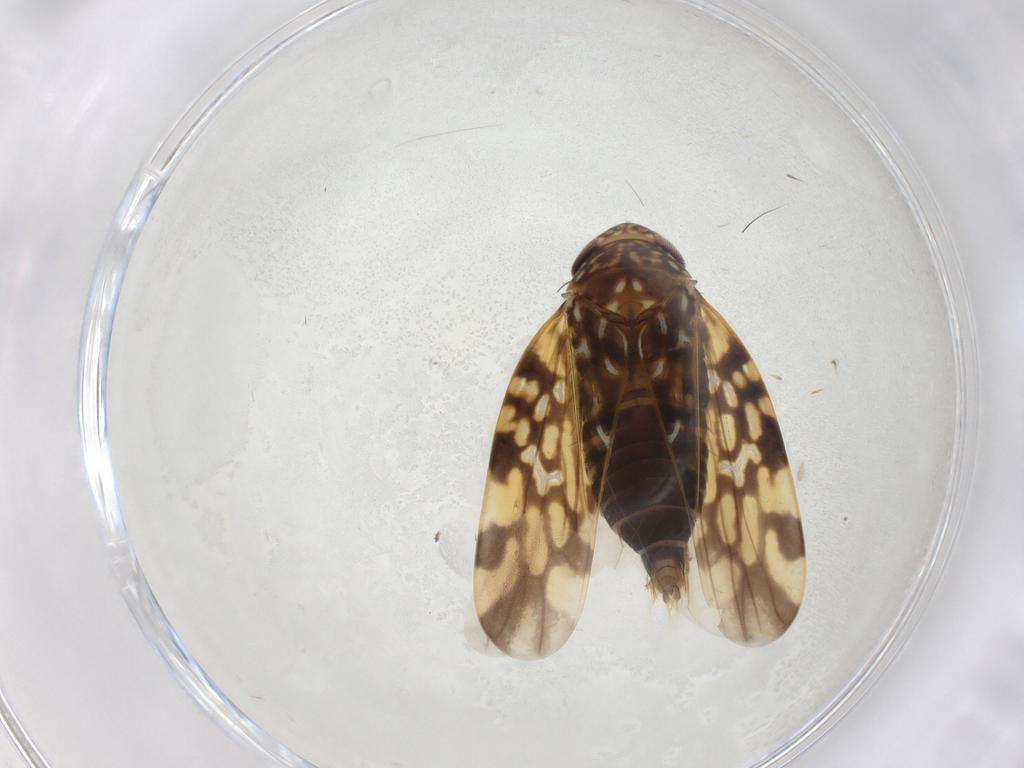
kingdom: Animalia
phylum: Arthropoda
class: Insecta
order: Hemiptera
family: Cicadellidae
